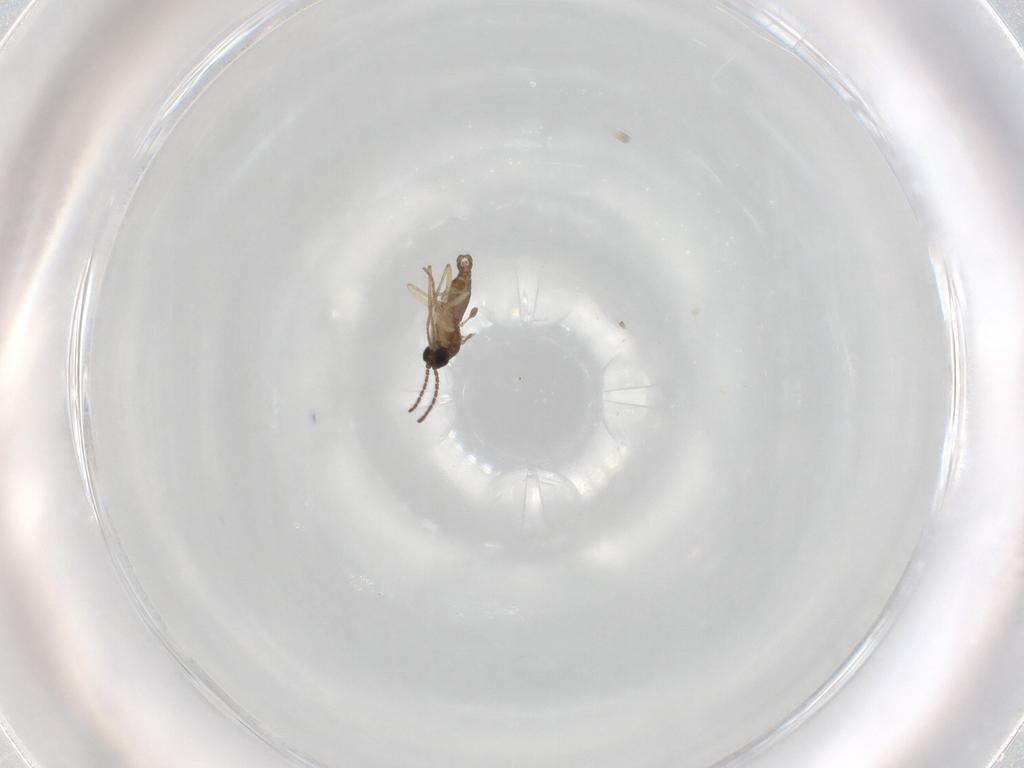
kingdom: Animalia
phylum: Arthropoda
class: Insecta
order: Diptera
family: Sciaridae
